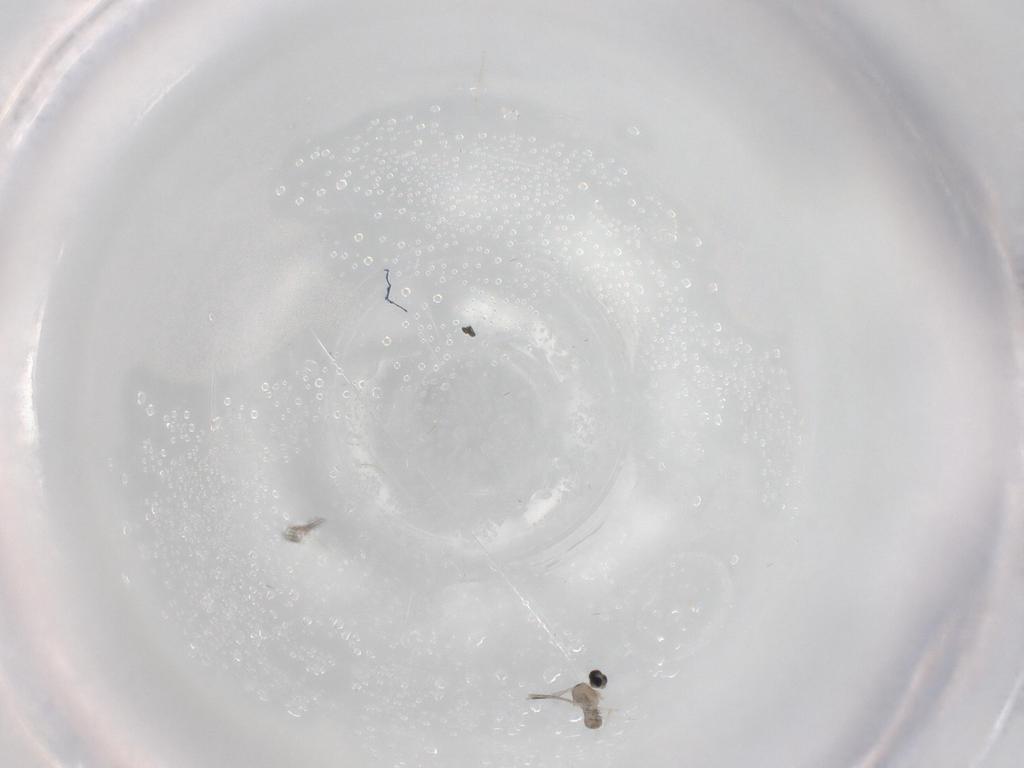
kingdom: Animalia
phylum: Arthropoda
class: Insecta
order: Diptera
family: Cecidomyiidae
